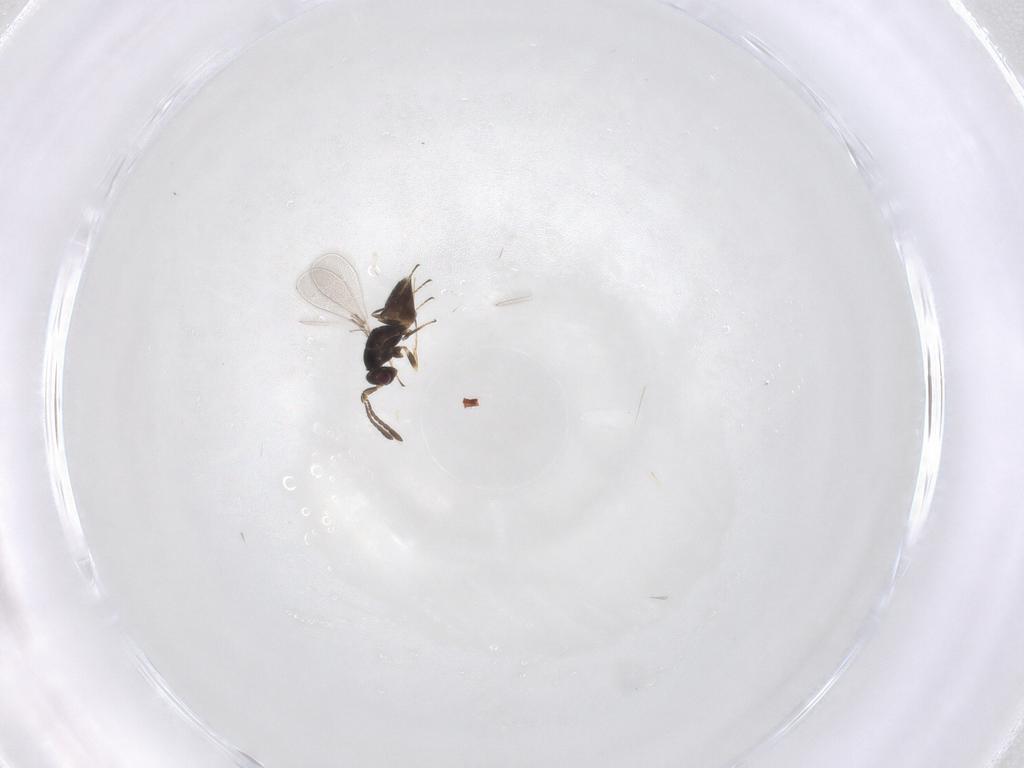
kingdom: Animalia
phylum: Arthropoda
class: Insecta
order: Hymenoptera
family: Mymaridae
